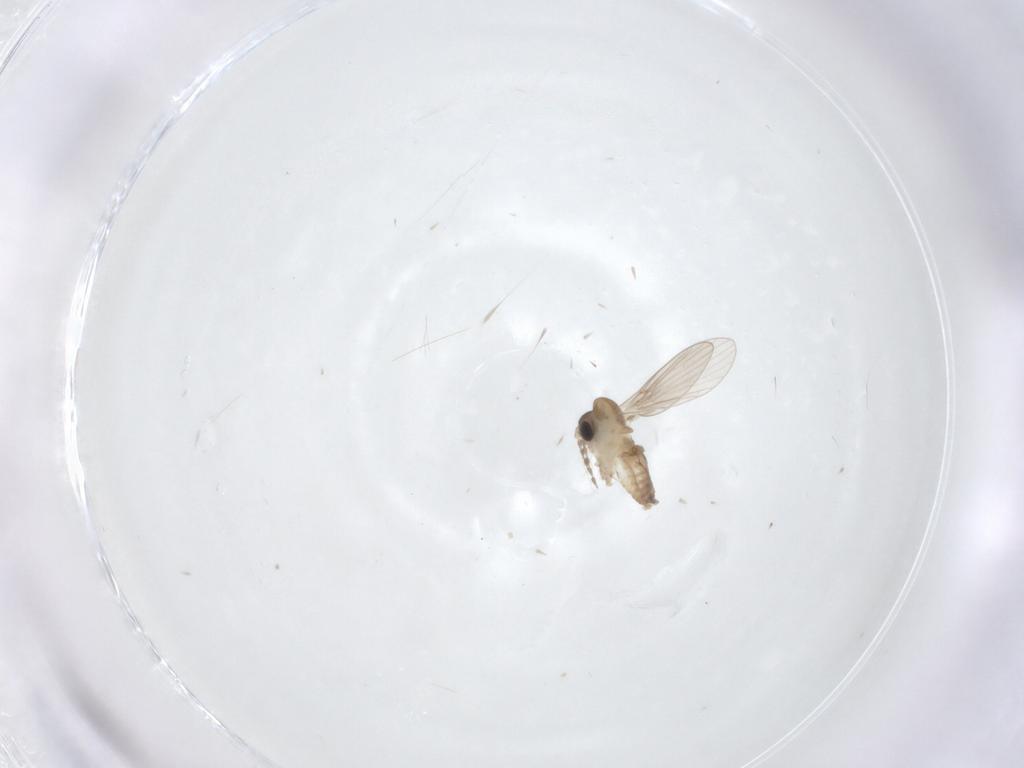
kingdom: Animalia
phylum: Arthropoda
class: Insecta
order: Diptera
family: Psychodidae
